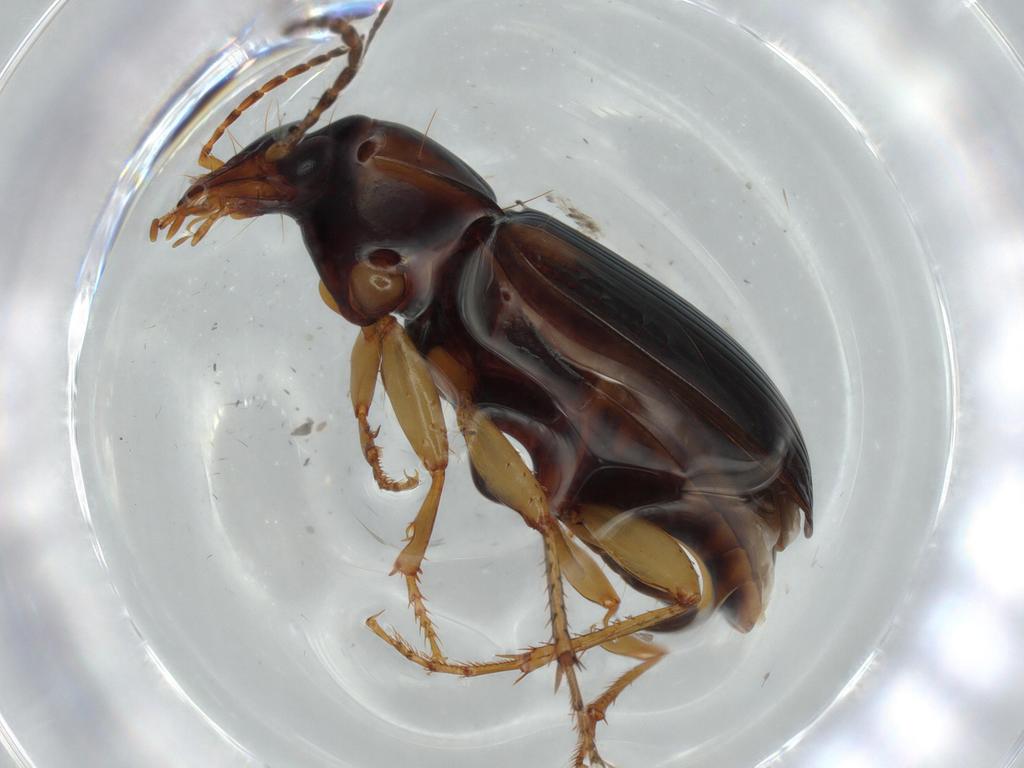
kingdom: Animalia
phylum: Arthropoda
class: Insecta
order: Coleoptera
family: Carabidae
